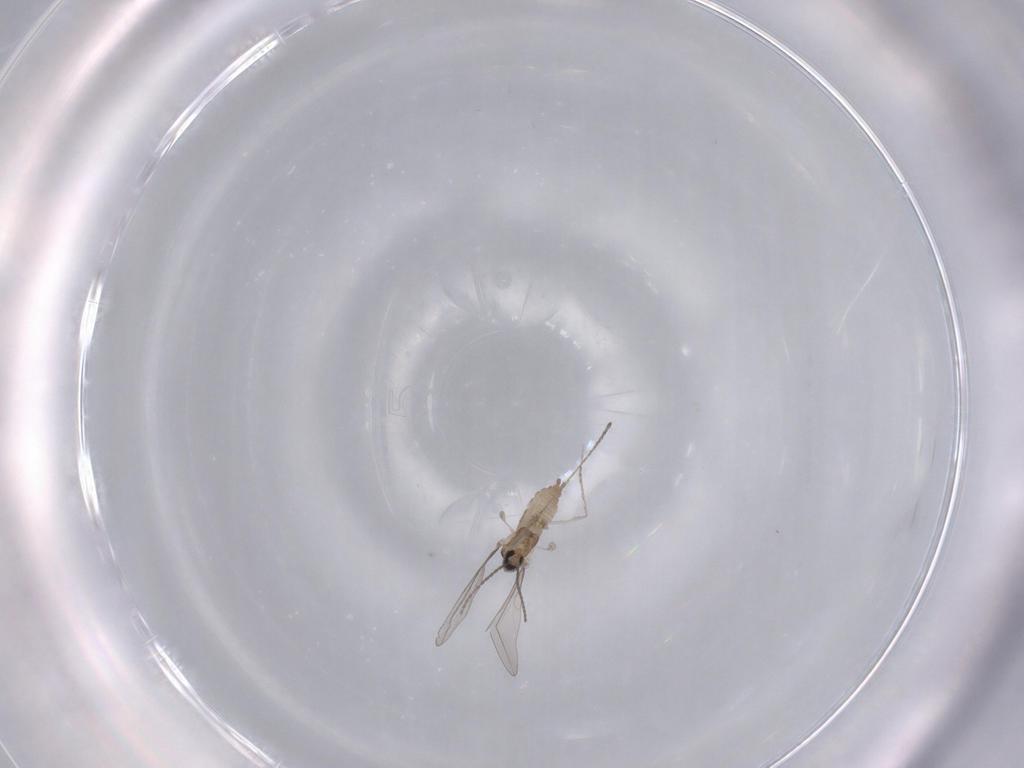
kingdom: Animalia
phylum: Arthropoda
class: Insecta
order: Diptera
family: Cecidomyiidae
